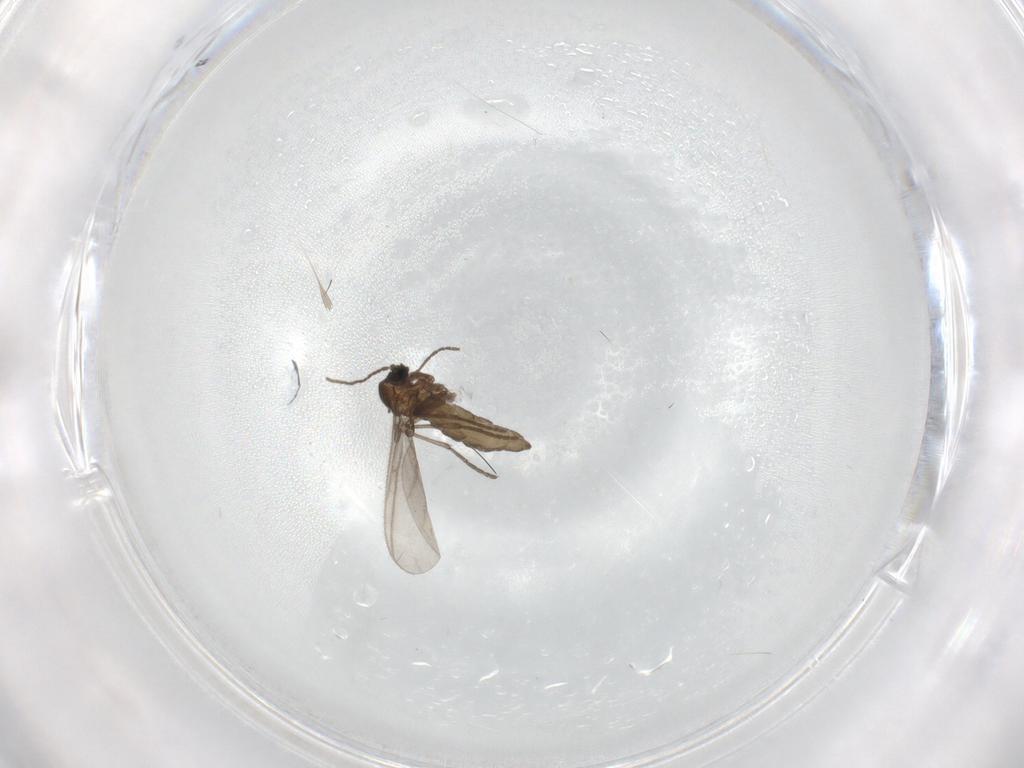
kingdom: Animalia
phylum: Arthropoda
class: Insecta
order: Diptera
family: Sciaridae
